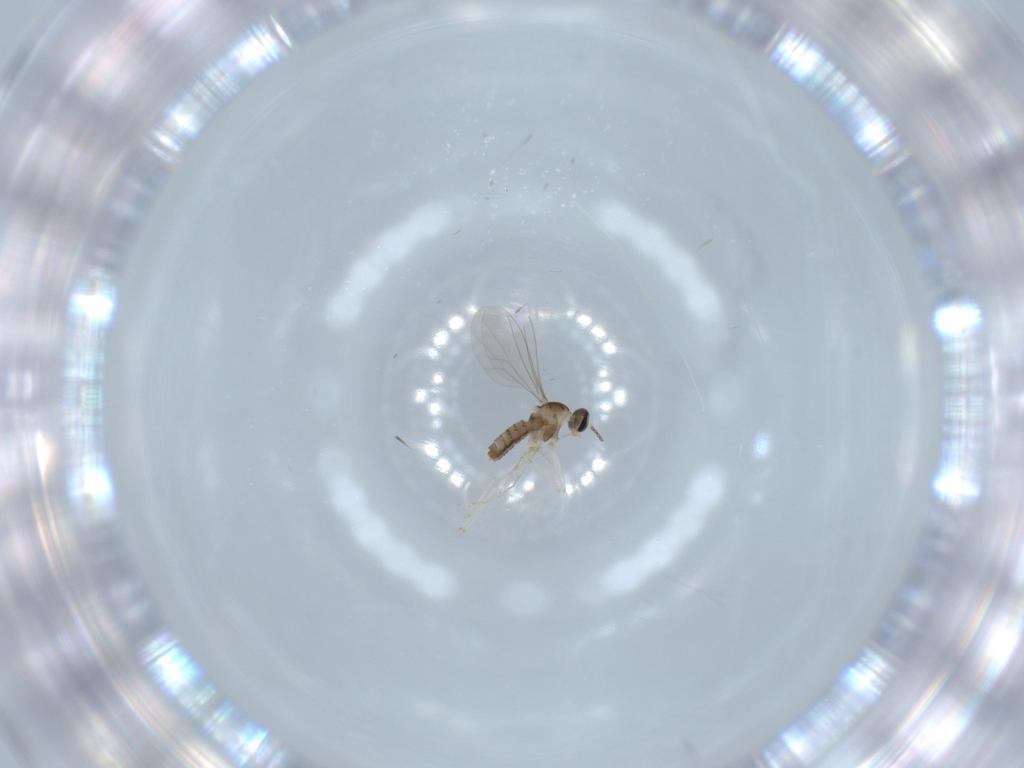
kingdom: Animalia
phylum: Arthropoda
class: Insecta
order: Diptera
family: Cecidomyiidae
